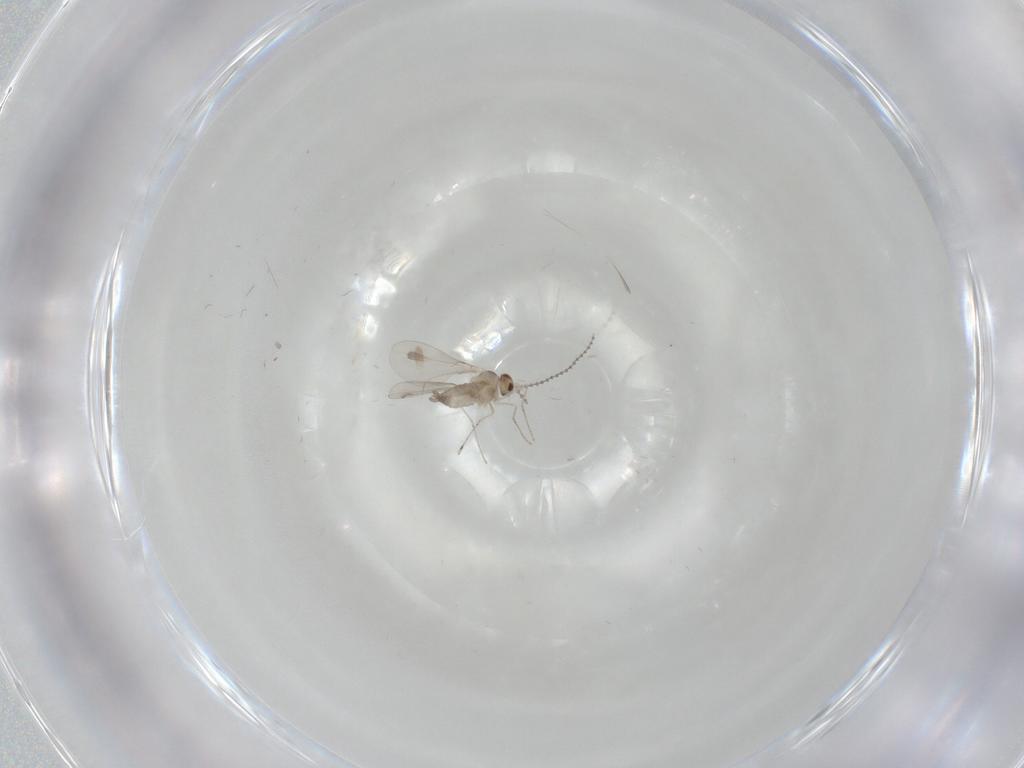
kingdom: Animalia
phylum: Arthropoda
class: Insecta
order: Diptera
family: Cecidomyiidae
